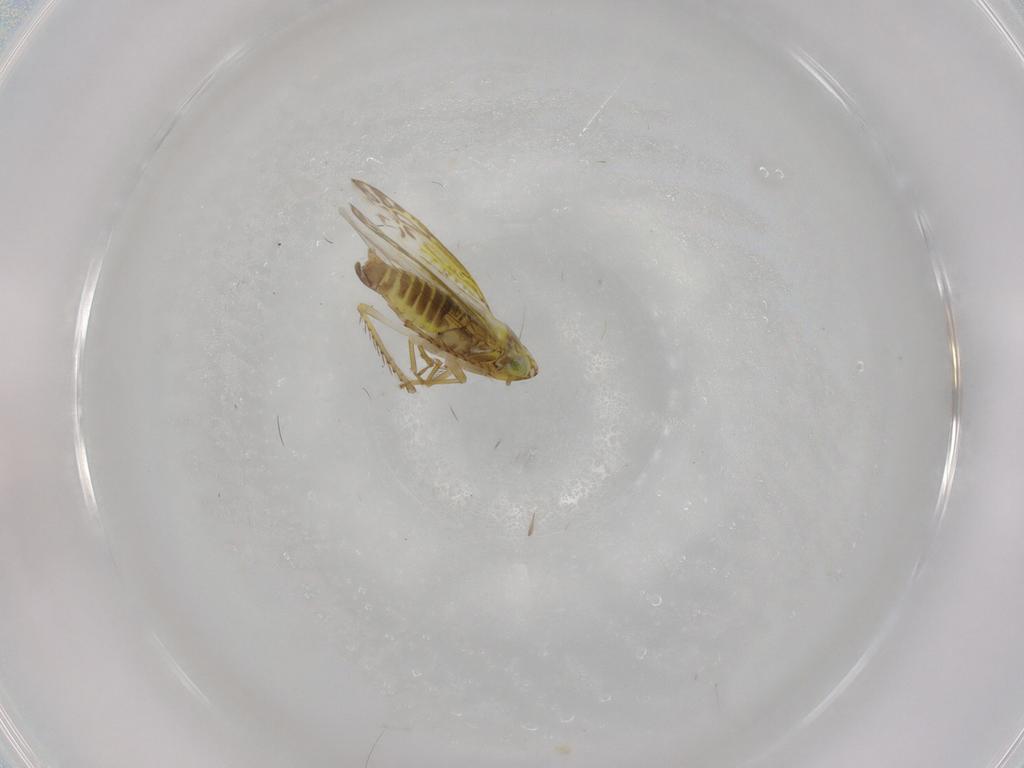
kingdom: Animalia
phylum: Arthropoda
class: Insecta
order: Hemiptera
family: Cicadellidae
